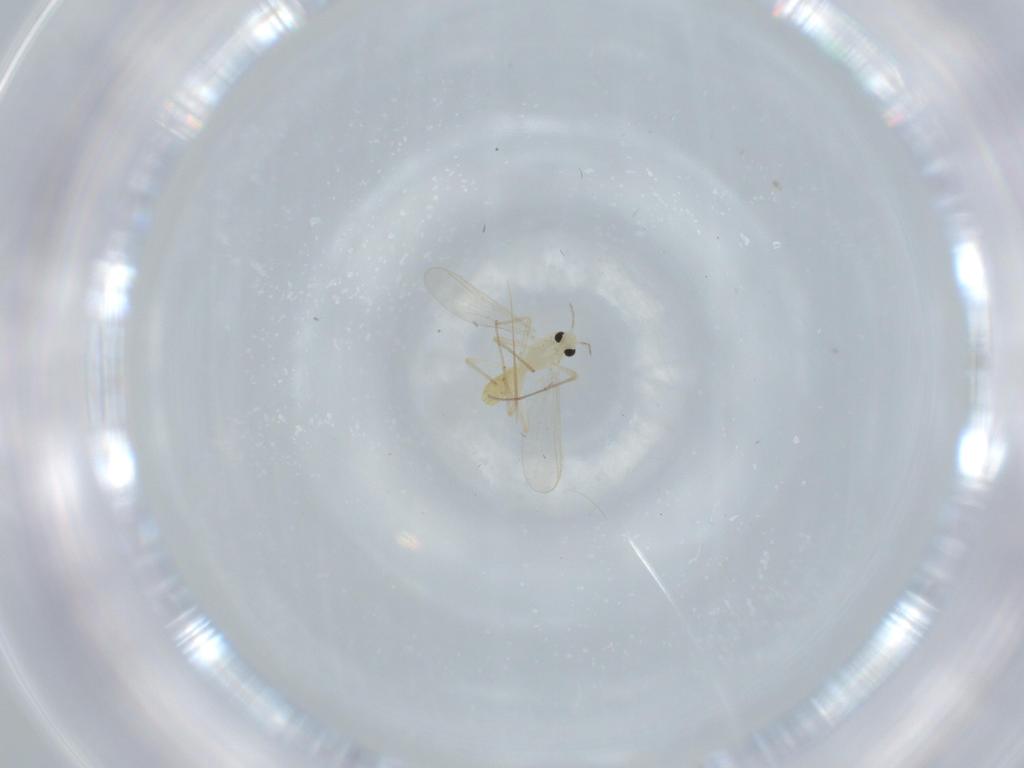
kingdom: Animalia
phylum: Arthropoda
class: Insecta
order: Diptera
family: Chironomidae
